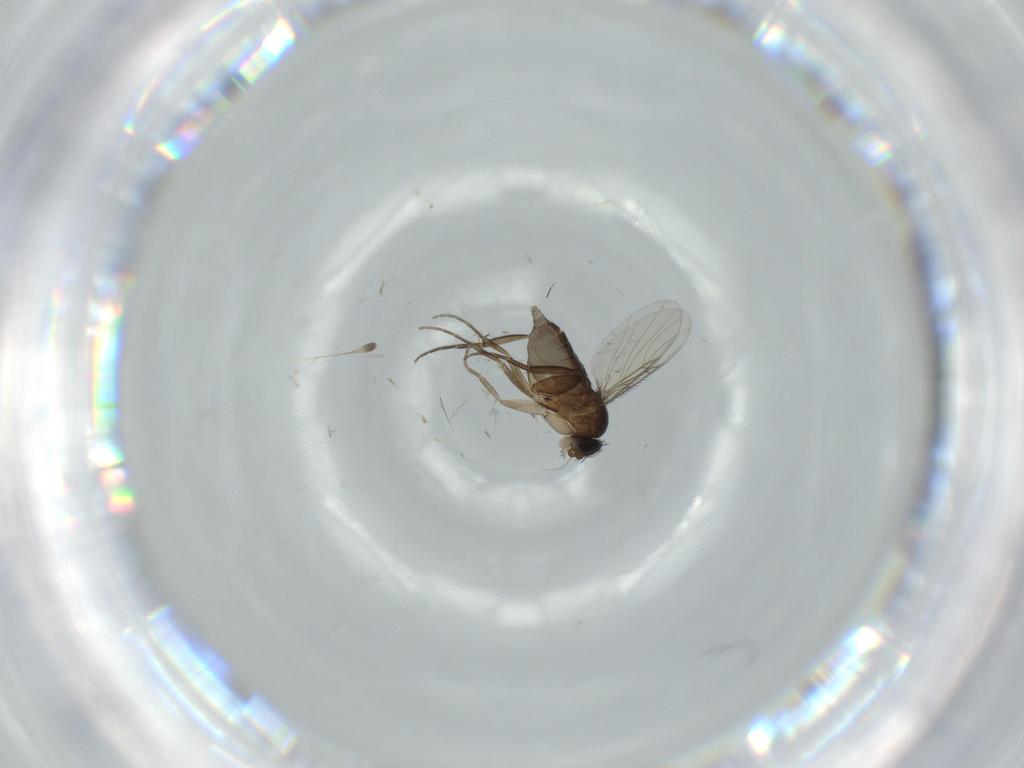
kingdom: Animalia
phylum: Arthropoda
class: Insecta
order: Diptera
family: Phoridae
